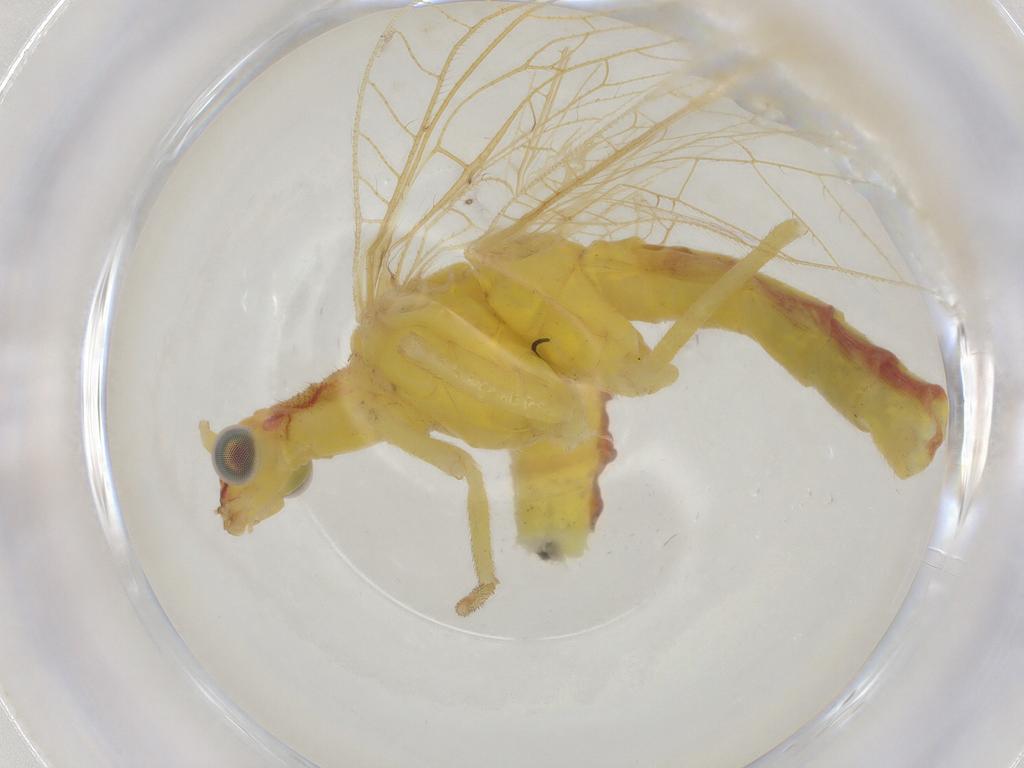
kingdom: Animalia
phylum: Arthropoda
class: Insecta
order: Neuroptera
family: Chrysopidae
